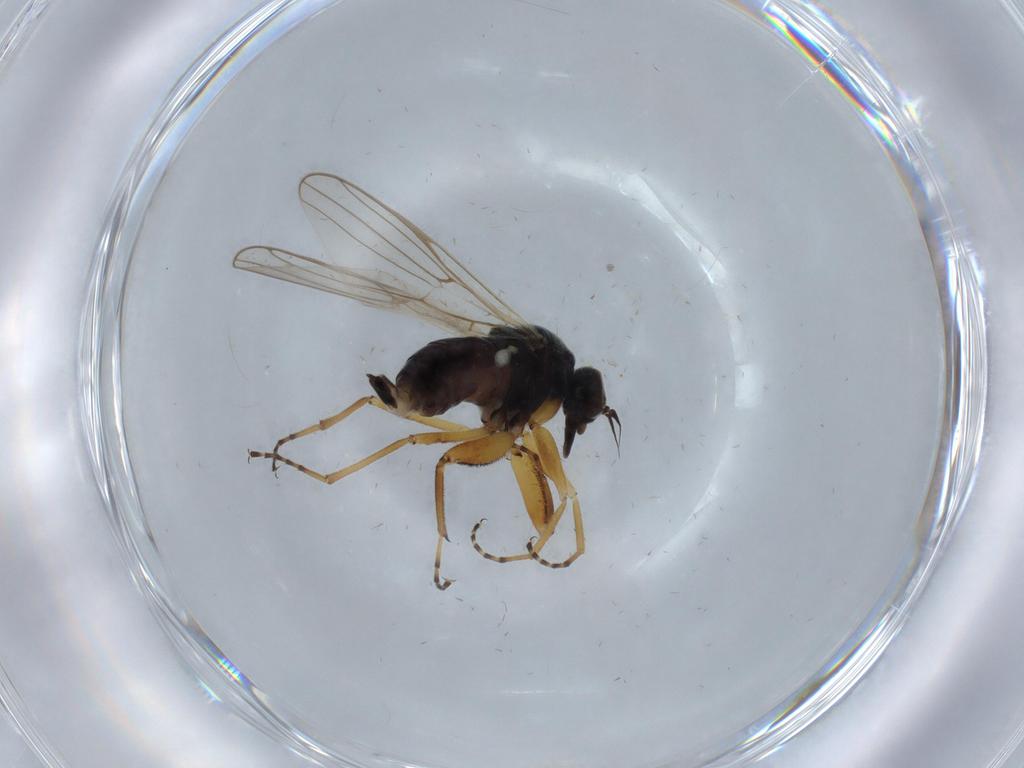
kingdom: Animalia
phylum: Arthropoda
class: Insecta
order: Diptera
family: Hybotidae
